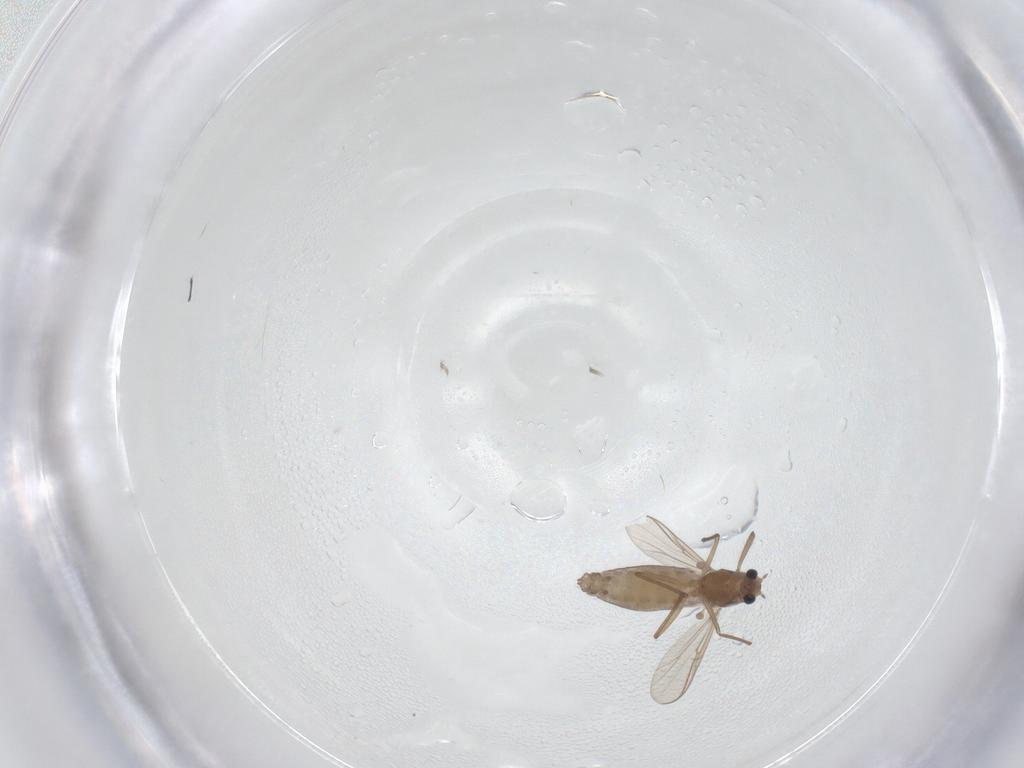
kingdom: Animalia
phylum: Arthropoda
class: Insecta
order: Diptera
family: Chironomidae
